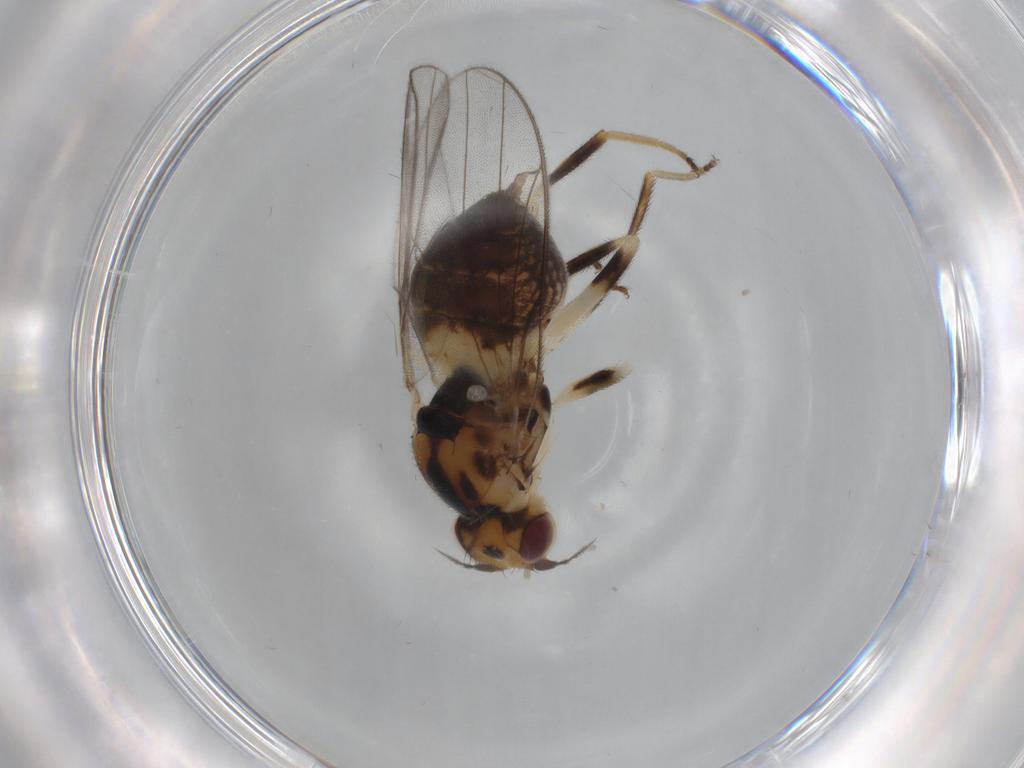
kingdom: Animalia
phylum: Arthropoda
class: Insecta
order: Diptera
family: Chloropidae
